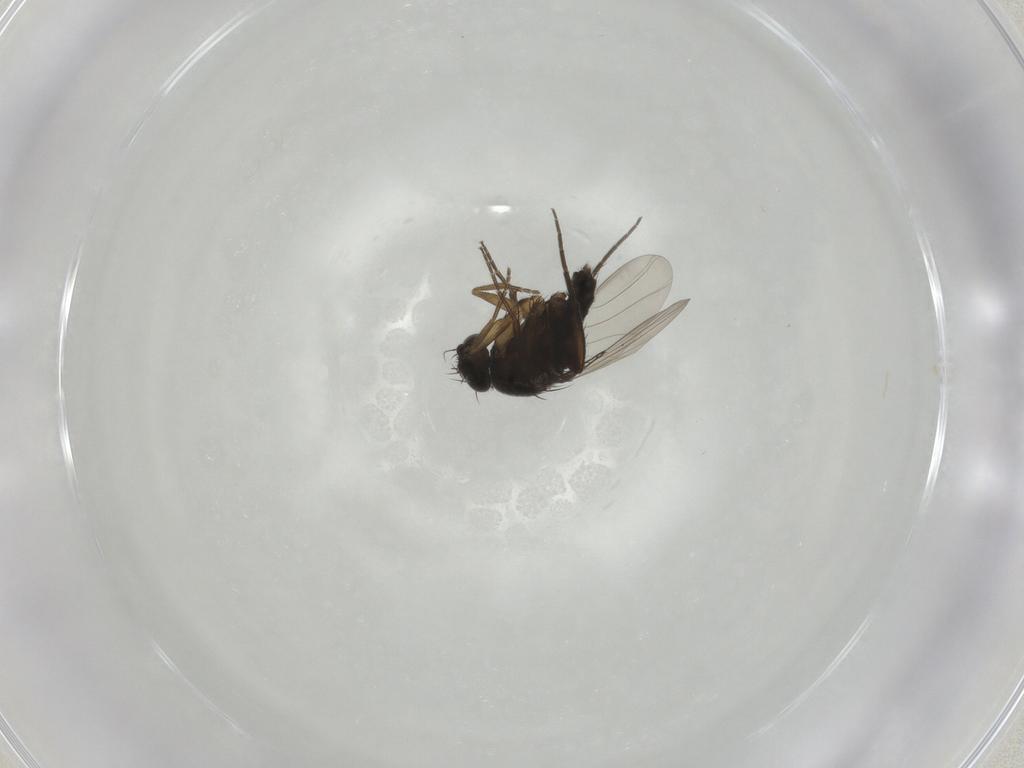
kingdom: Animalia
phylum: Arthropoda
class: Insecta
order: Diptera
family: Phoridae
